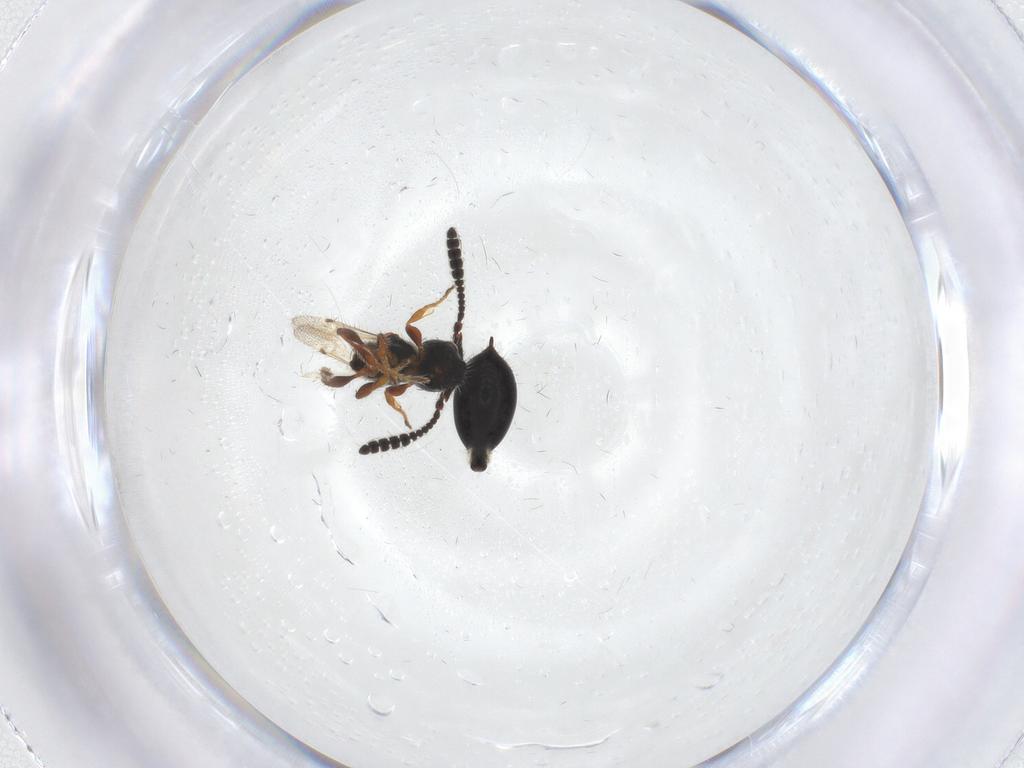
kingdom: Animalia
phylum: Arthropoda
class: Insecta
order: Hymenoptera
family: Diapriidae
